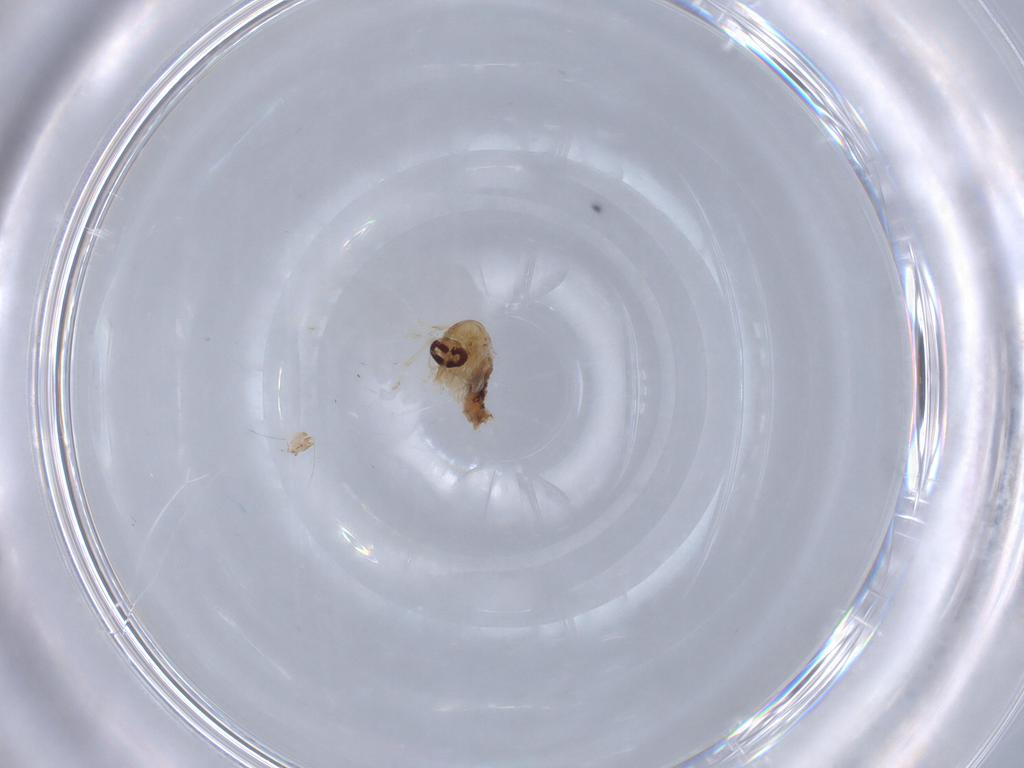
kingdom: Animalia
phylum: Arthropoda
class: Insecta
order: Diptera
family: Ceratopogonidae
